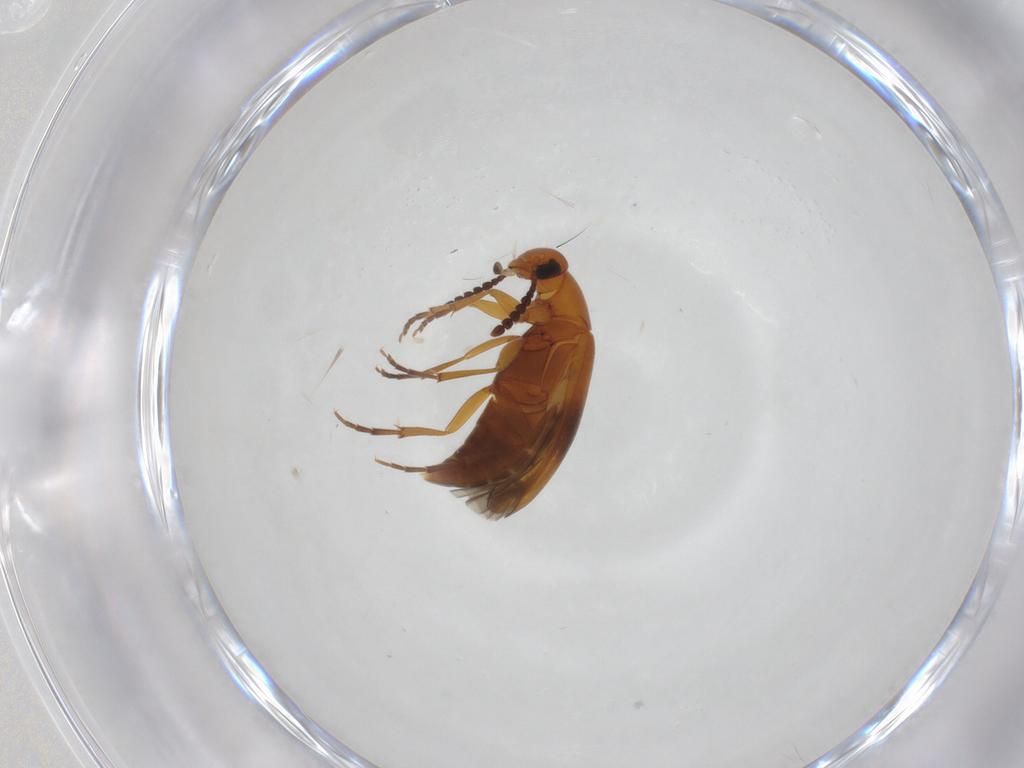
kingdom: Animalia
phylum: Arthropoda
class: Insecta
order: Coleoptera
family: Scraptiidae
